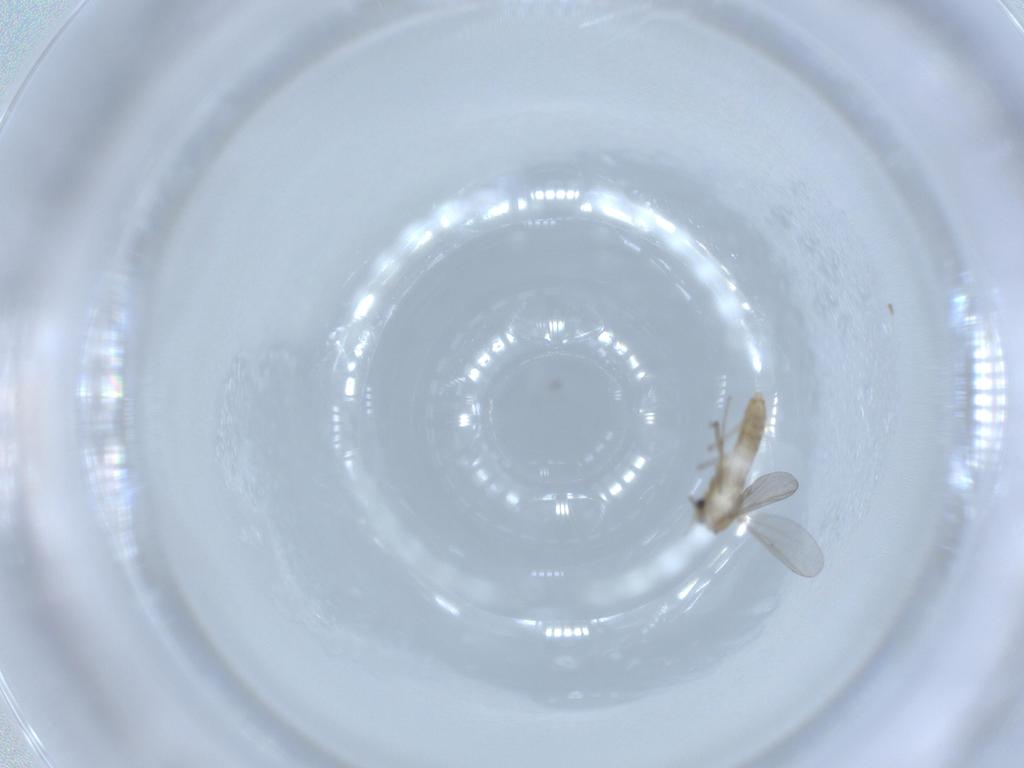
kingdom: Animalia
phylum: Arthropoda
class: Insecta
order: Diptera
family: Chironomidae
